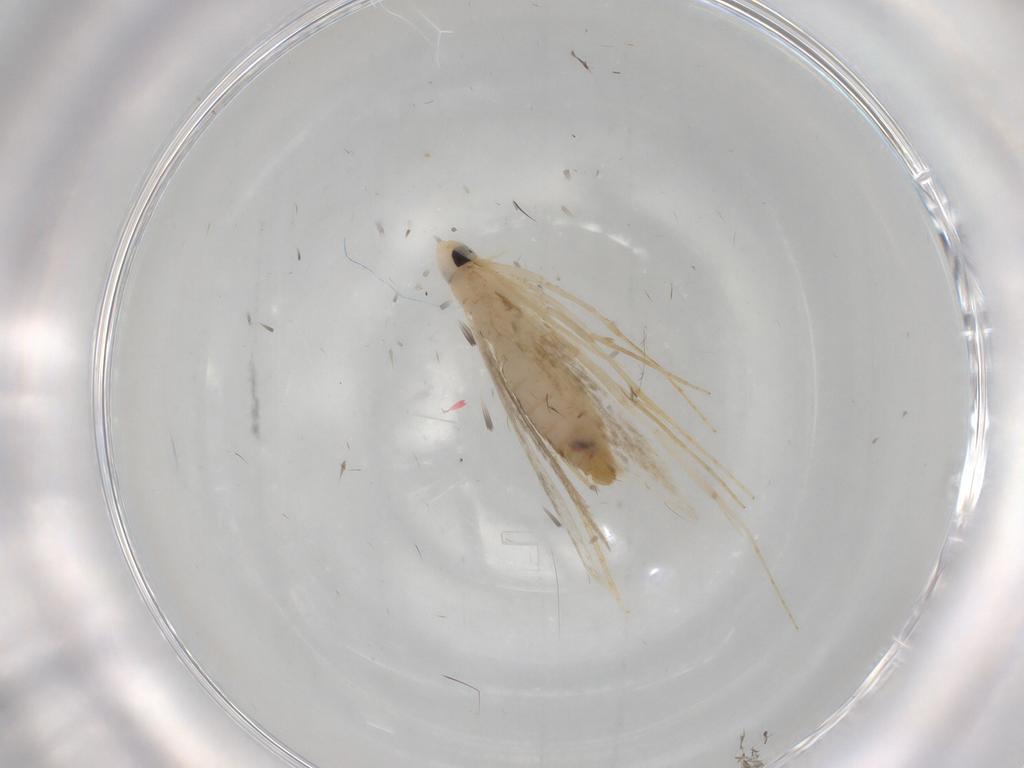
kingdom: Animalia
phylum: Arthropoda
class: Insecta
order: Lepidoptera
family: Tineidae
